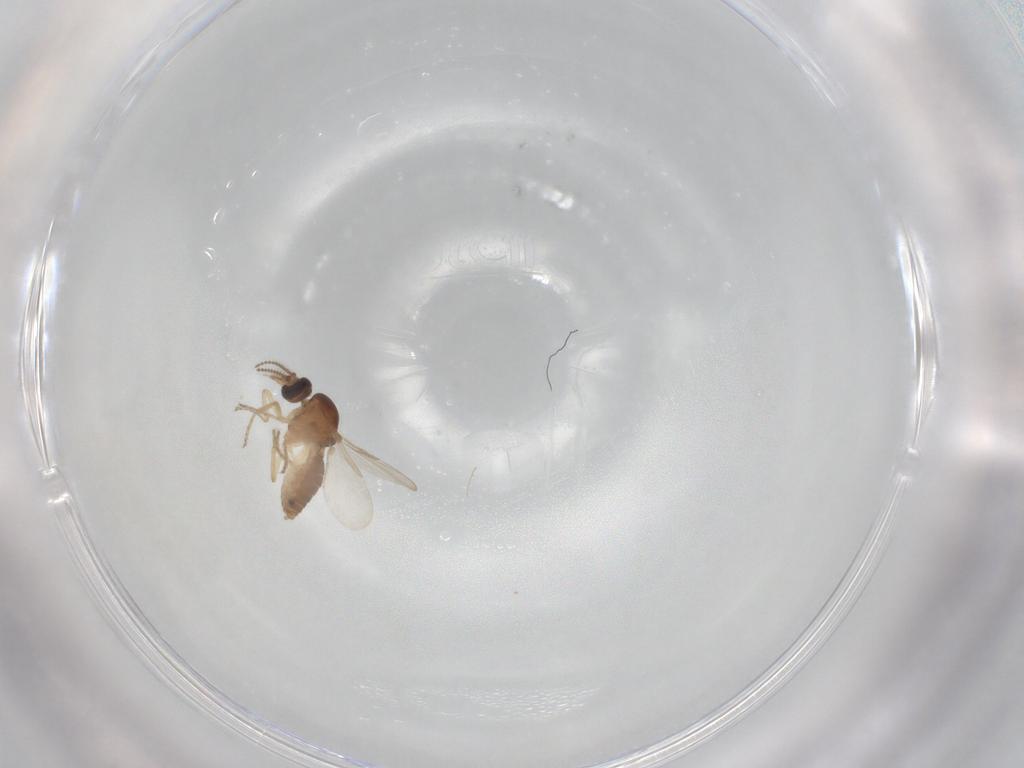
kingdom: Animalia
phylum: Arthropoda
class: Insecta
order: Diptera
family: Ceratopogonidae
